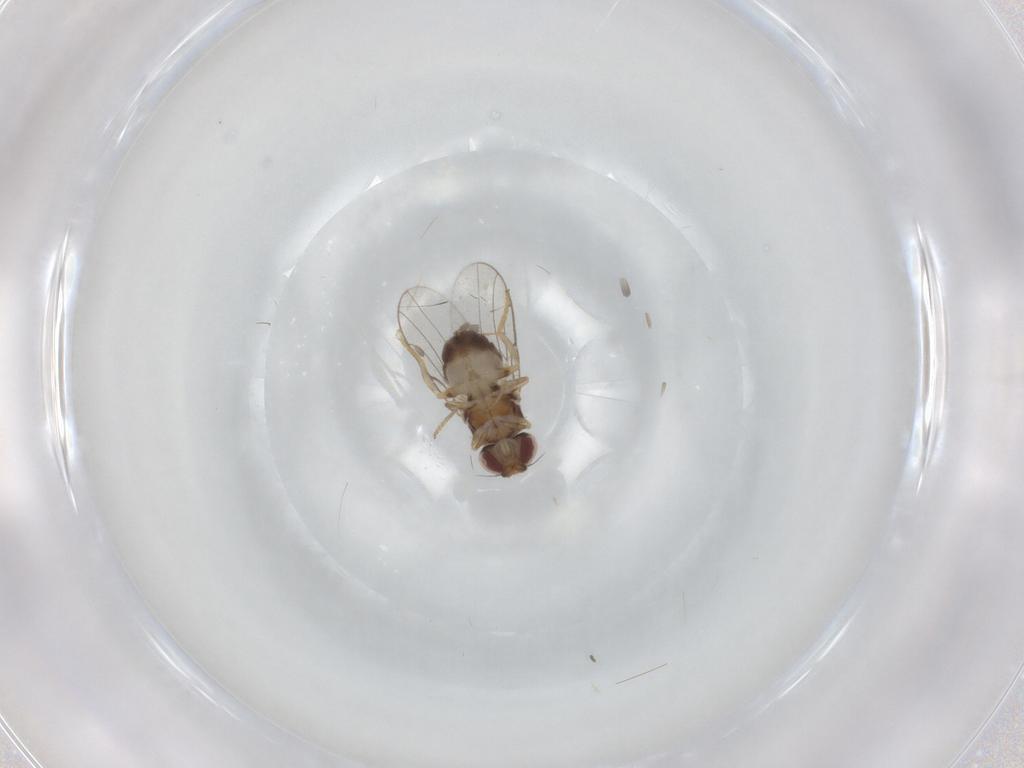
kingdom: Animalia
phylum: Arthropoda
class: Insecta
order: Diptera
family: Chloropidae
